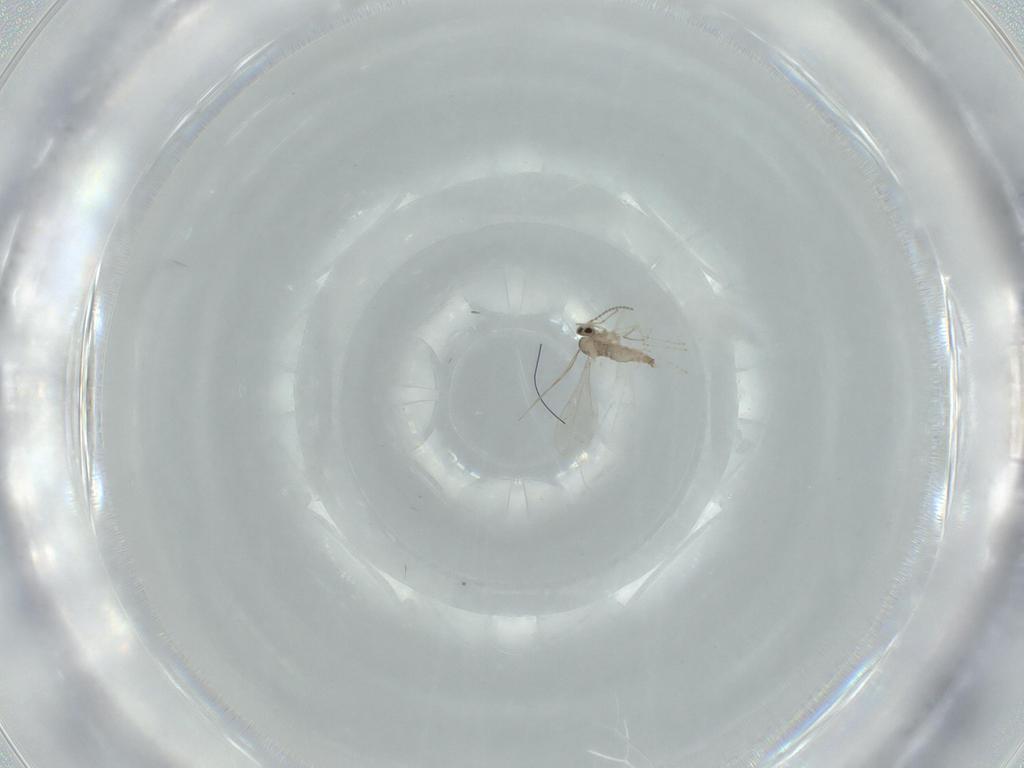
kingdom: Animalia
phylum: Arthropoda
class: Insecta
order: Diptera
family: Cecidomyiidae
